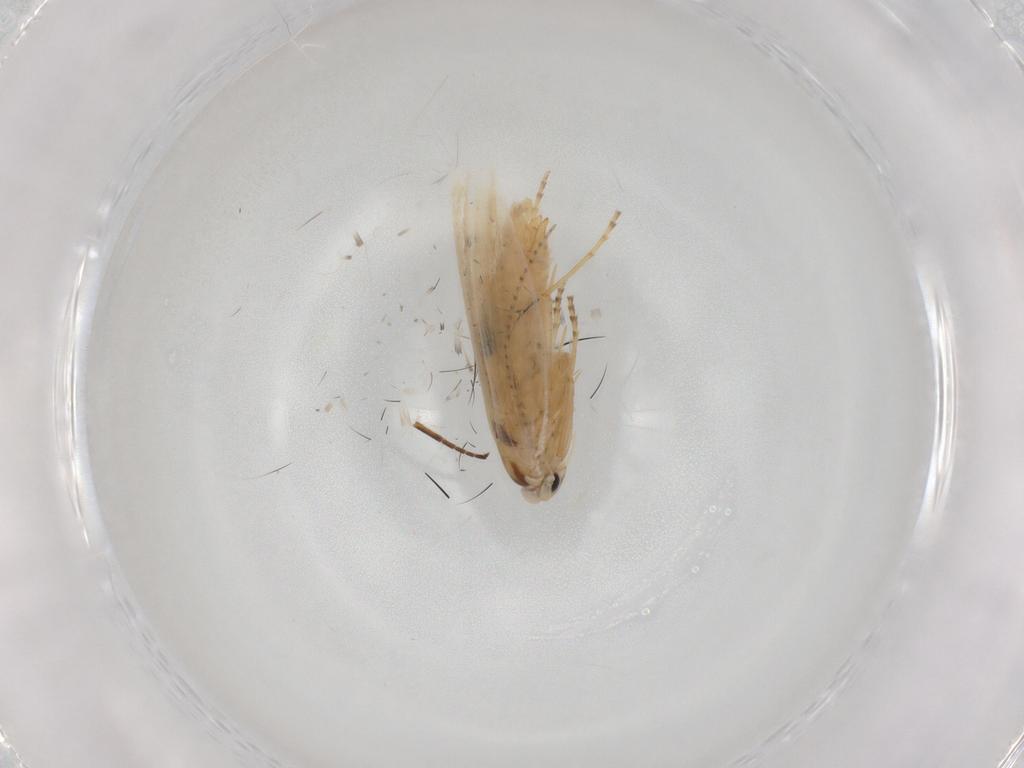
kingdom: Animalia
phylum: Arthropoda
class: Insecta
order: Lepidoptera
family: Bucculatricidae
